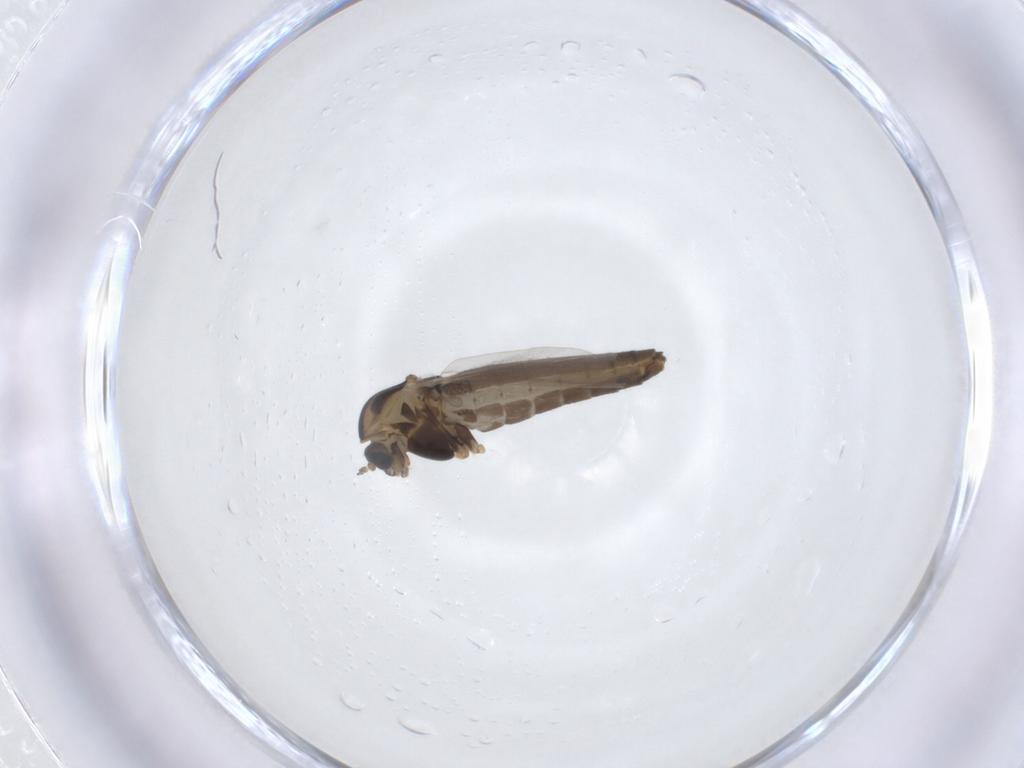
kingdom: Animalia
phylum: Arthropoda
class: Insecta
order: Diptera
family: Chironomidae
